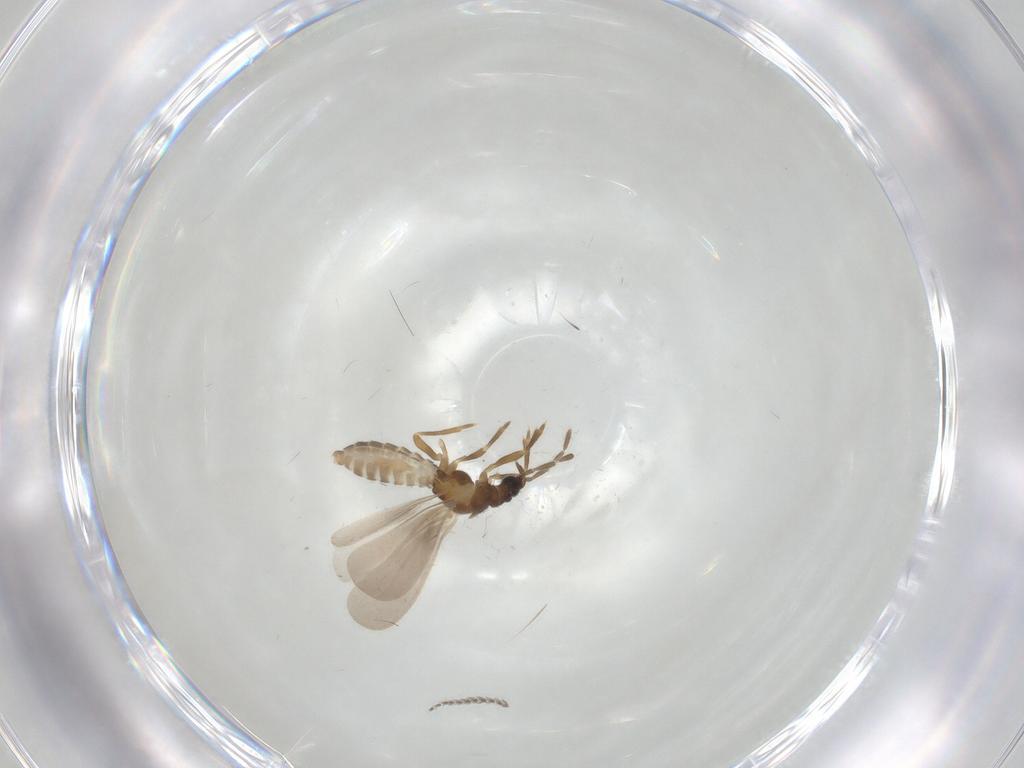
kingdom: Animalia
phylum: Arthropoda
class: Insecta
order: Hemiptera
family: Enicocephalidae
